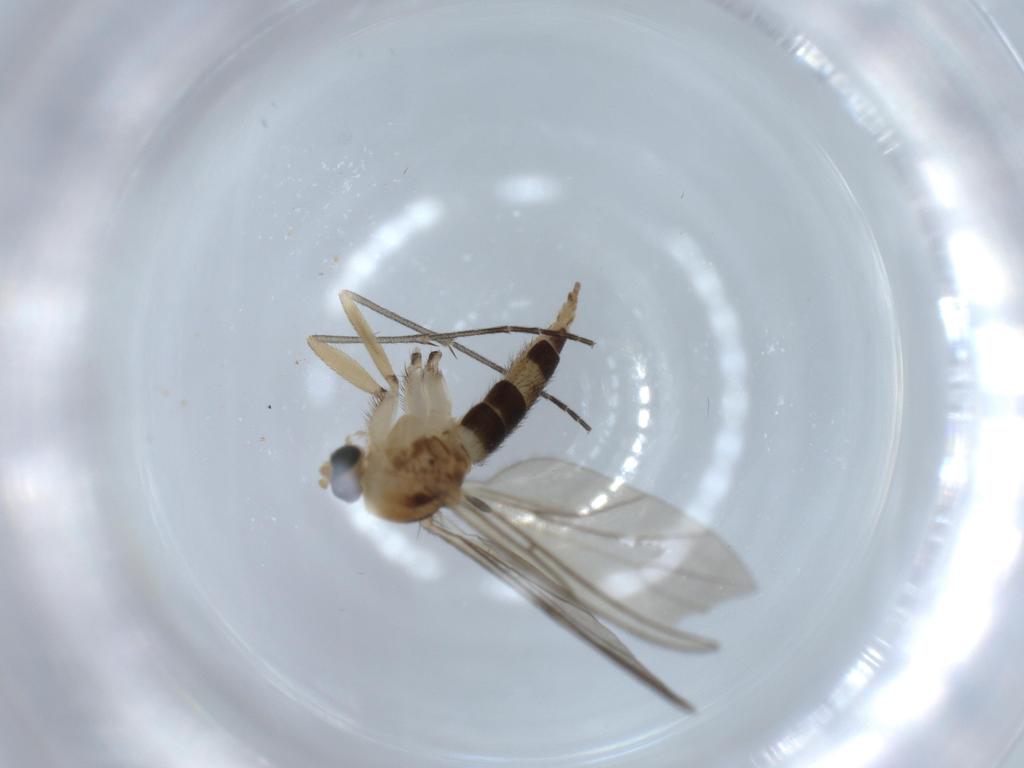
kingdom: Animalia
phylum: Arthropoda
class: Insecta
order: Diptera
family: Sciaridae
